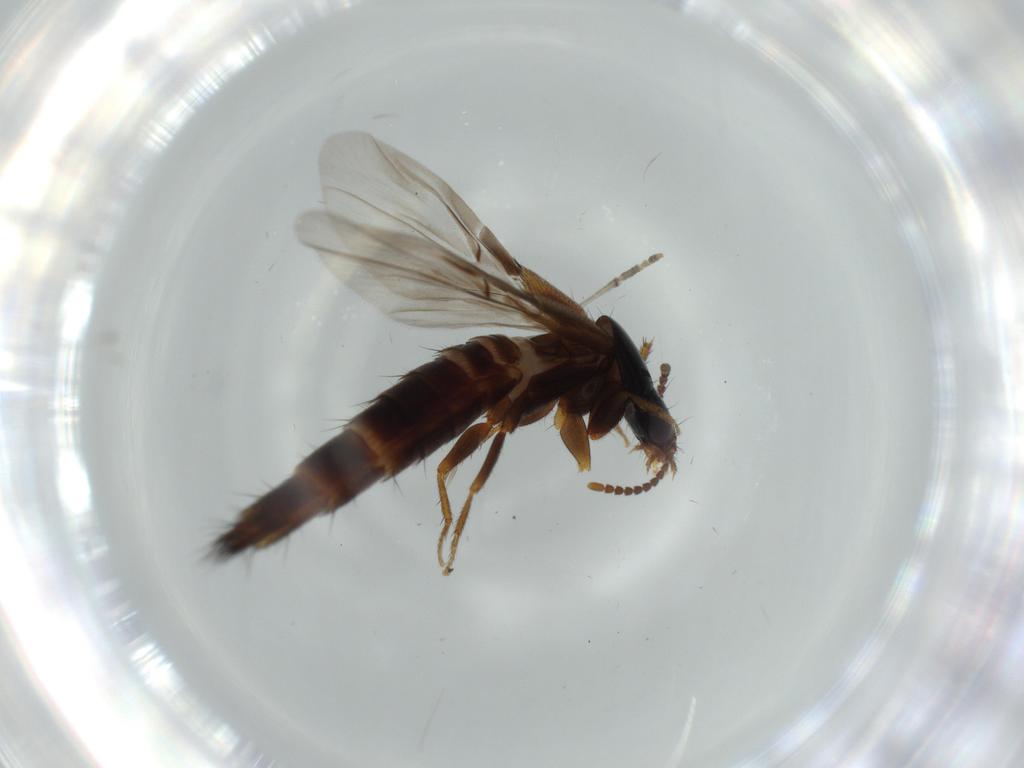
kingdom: Animalia
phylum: Arthropoda
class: Insecta
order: Coleoptera
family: Staphylinidae
